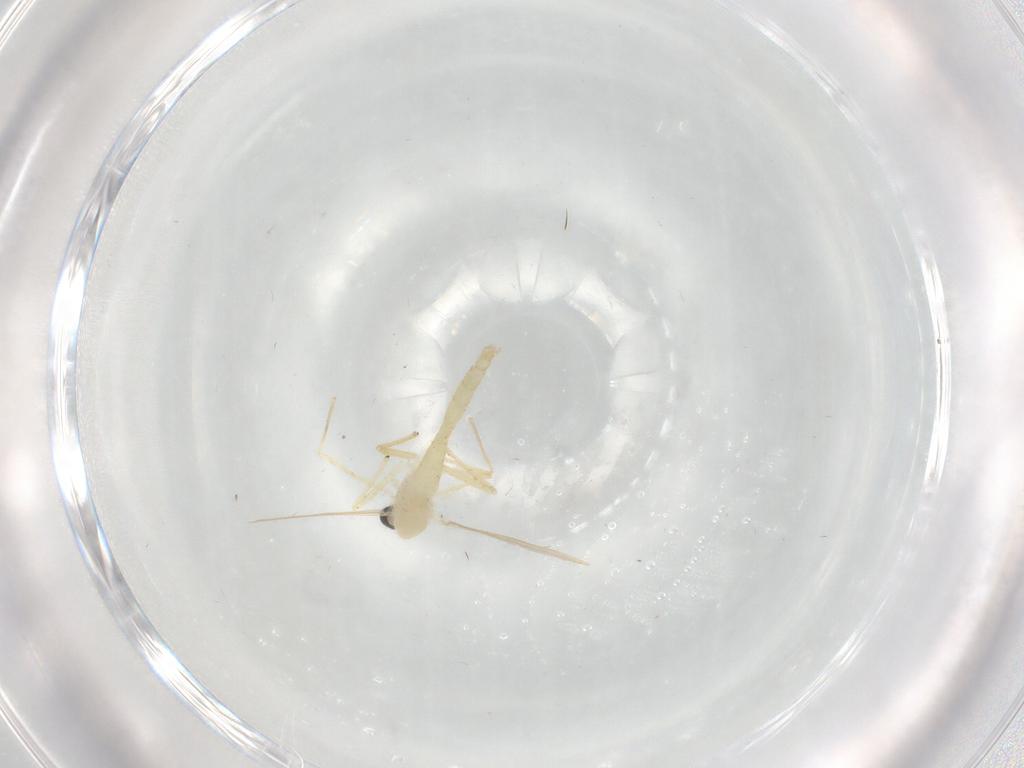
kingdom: Animalia
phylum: Arthropoda
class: Insecta
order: Diptera
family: Chironomidae
